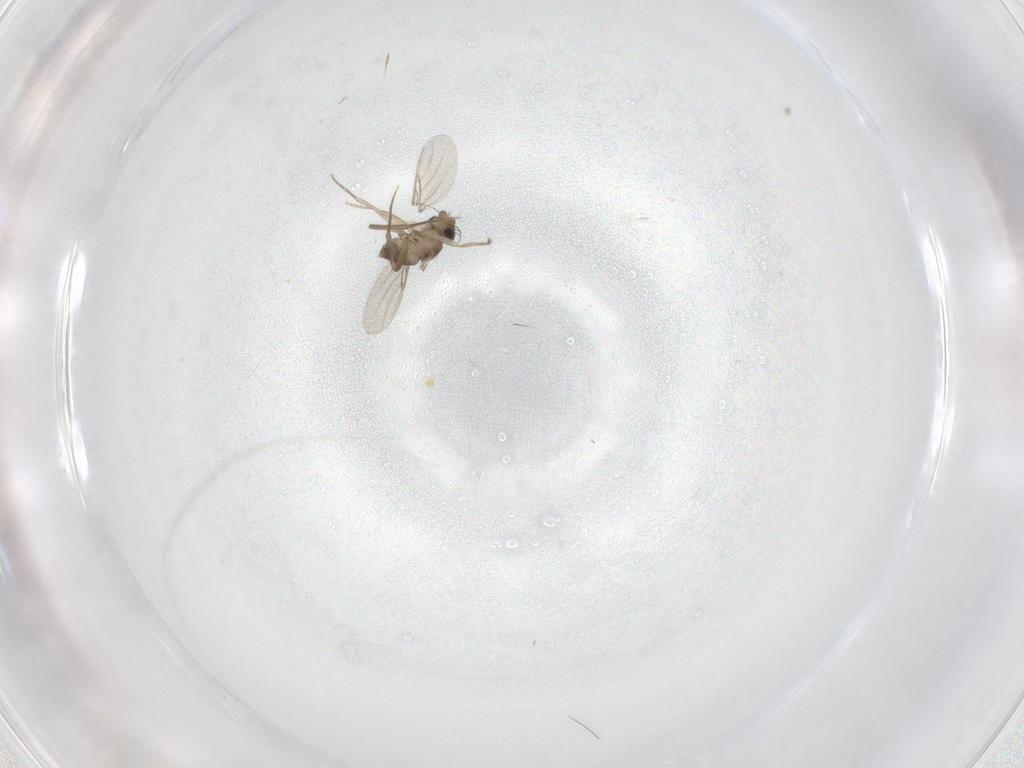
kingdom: Animalia
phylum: Arthropoda
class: Insecta
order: Diptera
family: Phoridae
